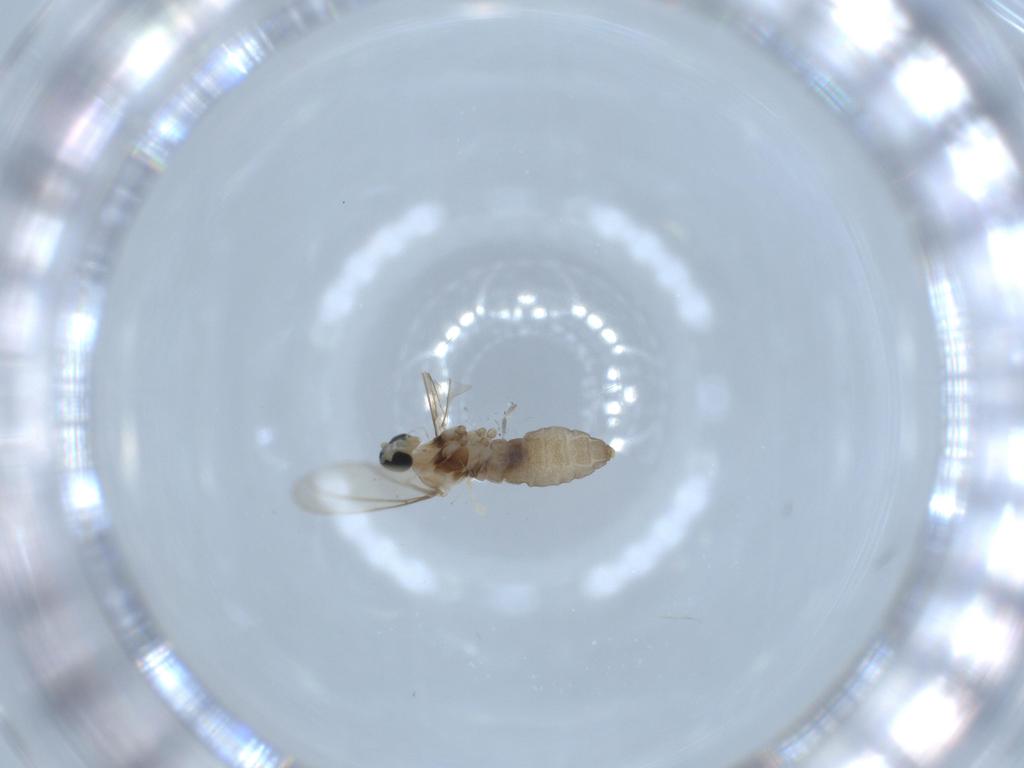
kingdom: Animalia
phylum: Arthropoda
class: Insecta
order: Diptera
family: Cecidomyiidae
